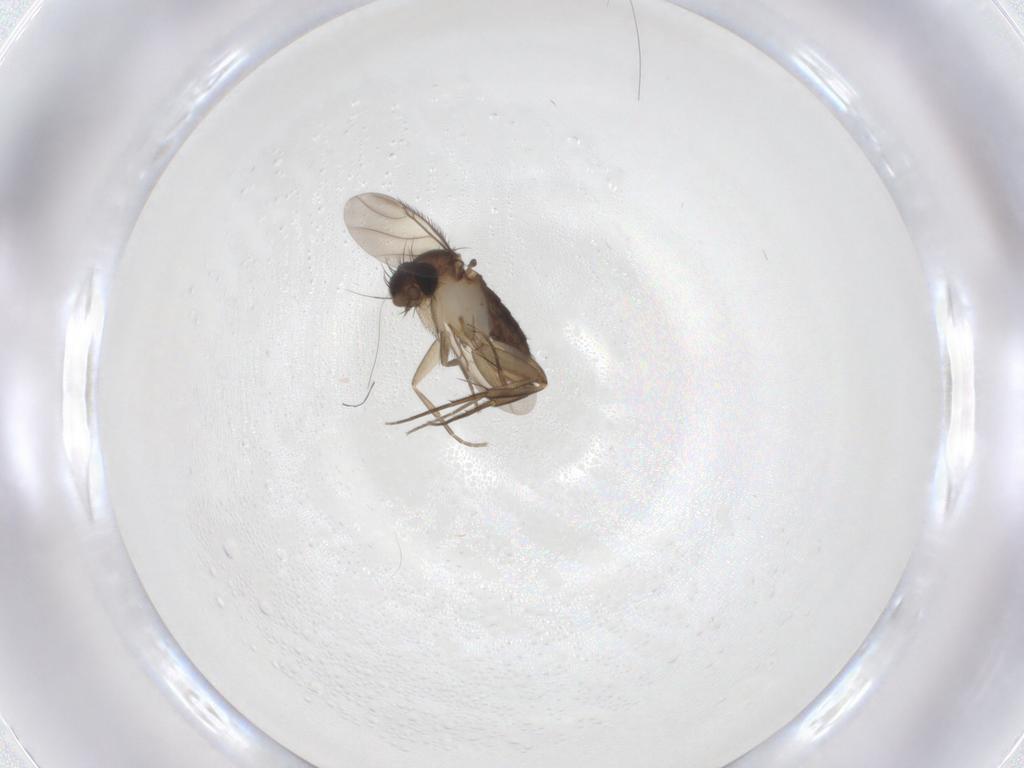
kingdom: Animalia
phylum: Arthropoda
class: Insecta
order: Diptera
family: Phoridae
